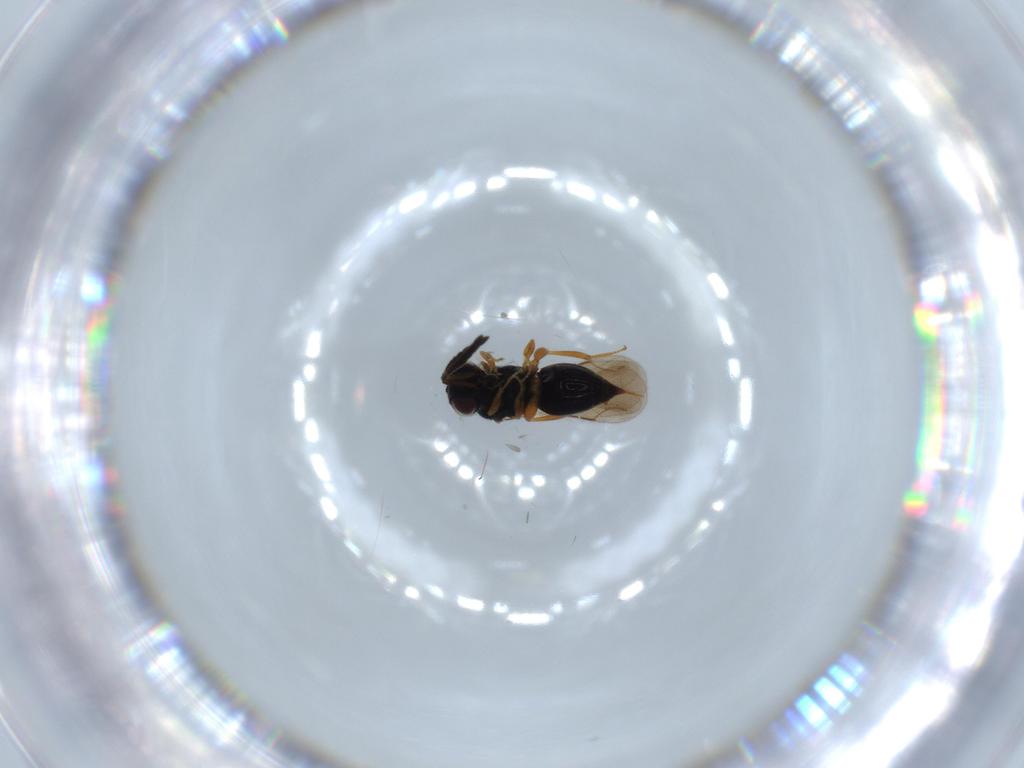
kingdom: Animalia
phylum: Arthropoda
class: Insecta
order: Hymenoptera
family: Ceraphronidae
